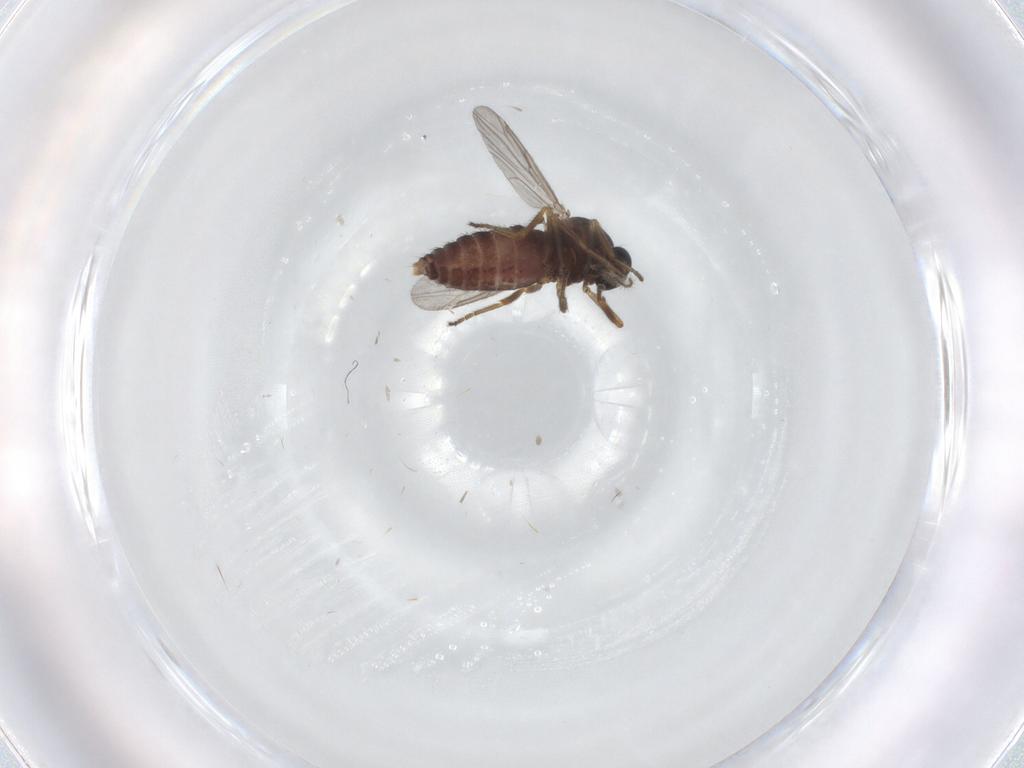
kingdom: Animalia
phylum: Arthropoda
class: Insecta
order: Diptera
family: Ceratopogonidae
